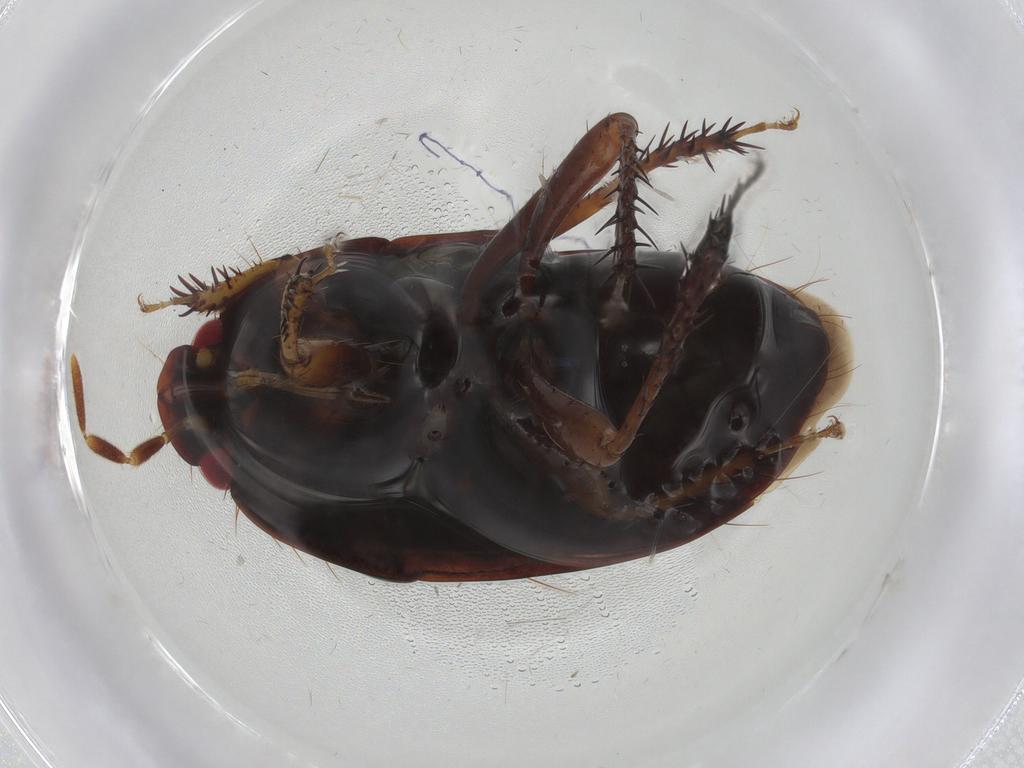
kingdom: Animalia
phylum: Arthropoda
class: Insecta
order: Hemiptera
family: Cydnidae
